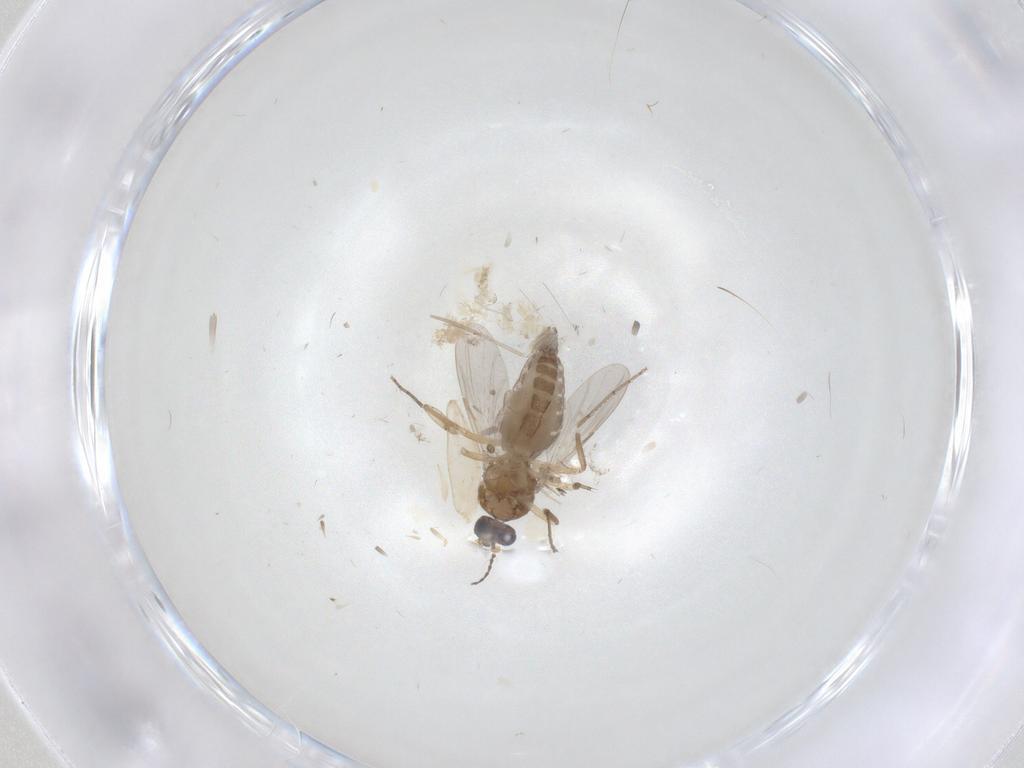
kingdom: Animalia
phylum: Arthropoda
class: Insecta
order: Diptera
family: Ceratopogonidae
